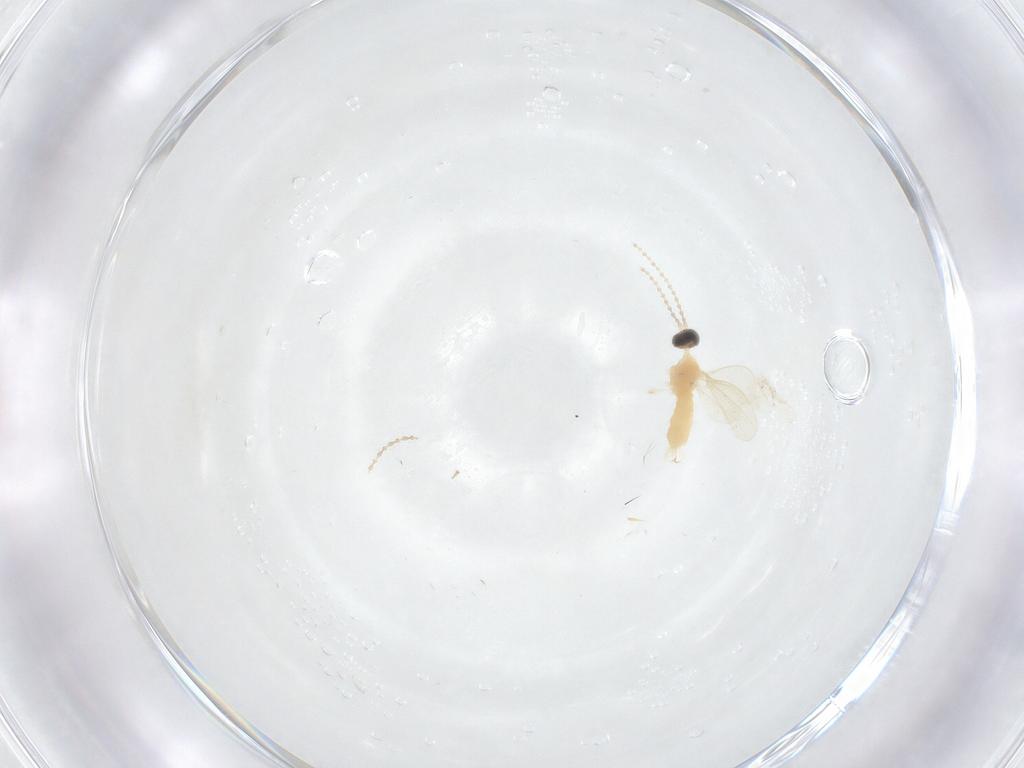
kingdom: Animalia
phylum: Arthropoda
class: Insecta
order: Diptera
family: Cecidomyiidae
